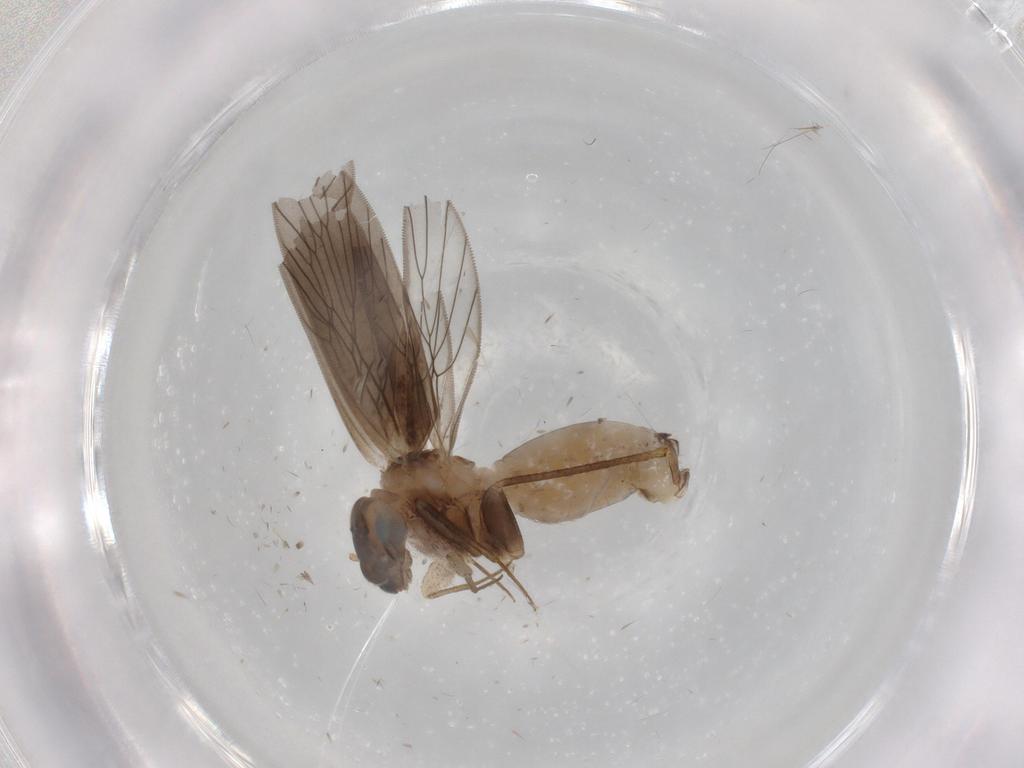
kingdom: Animalia
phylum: Arthropoda
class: Insecta
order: Psocodea
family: Lepidopsocidae
